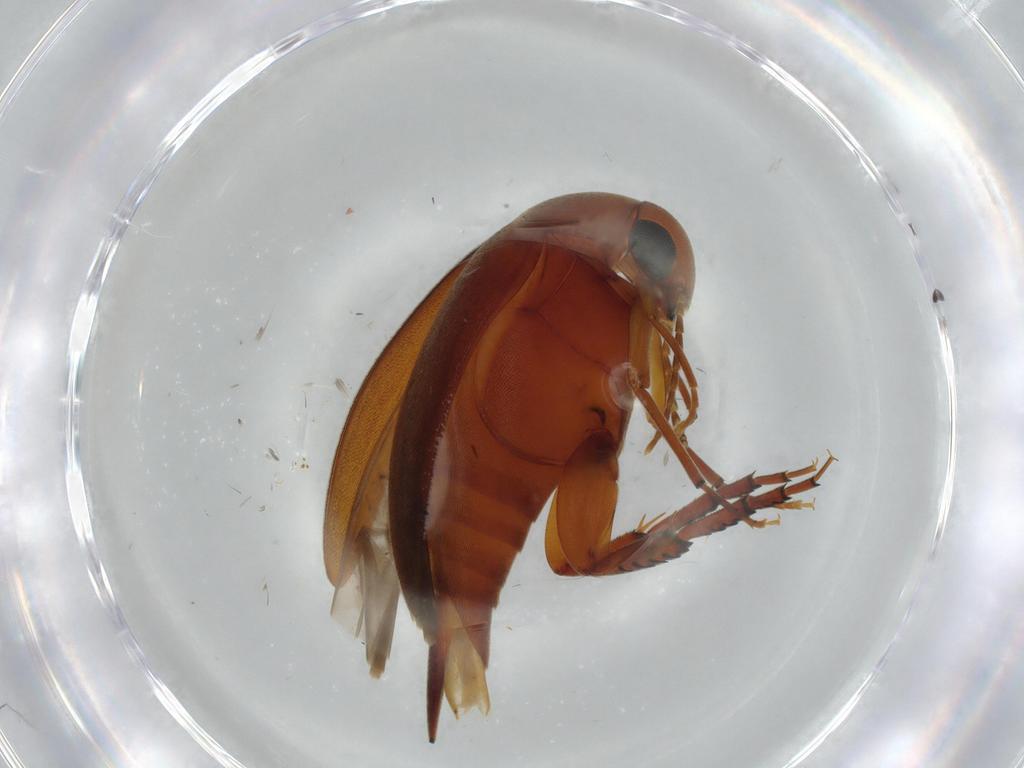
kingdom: Animalia
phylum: Arthropoda
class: Insecta
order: Coleoptera
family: Mordellidae
